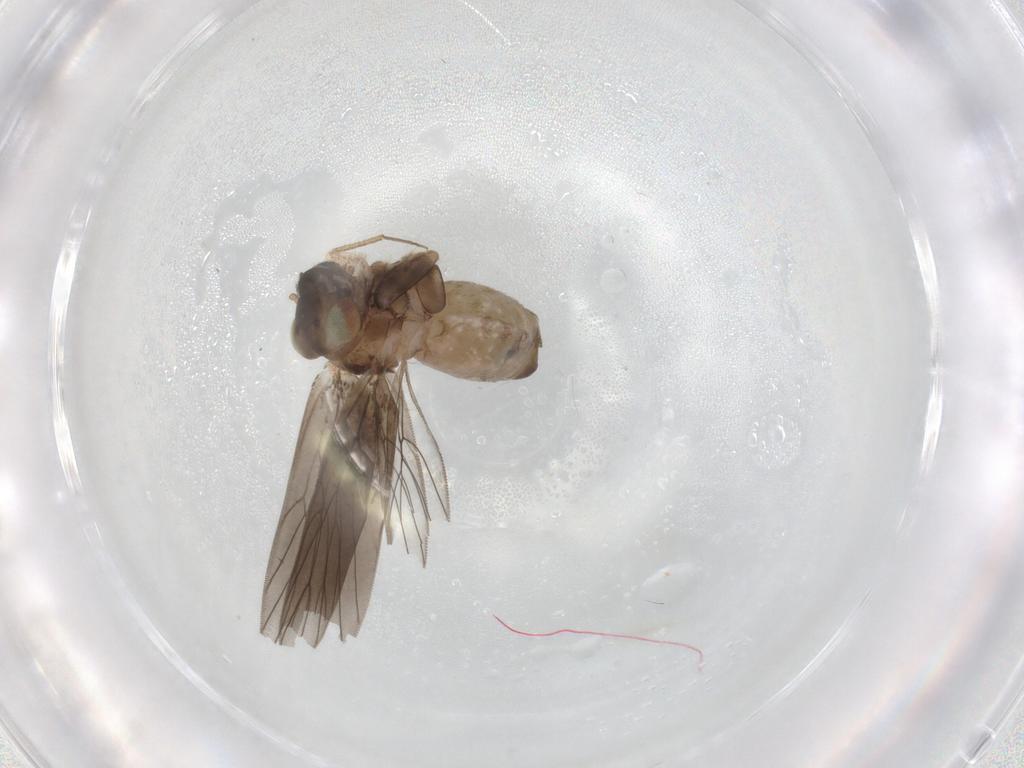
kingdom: Animalia
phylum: Arthropoda
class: Insecta
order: Psocodea
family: Lepidopsocidae
